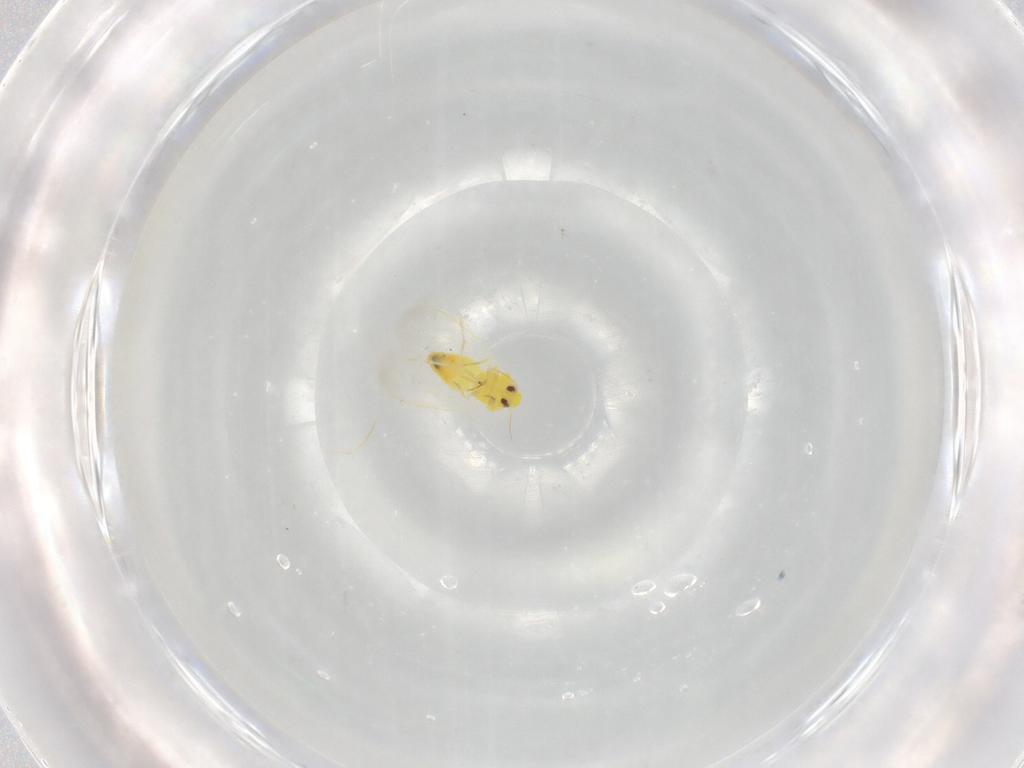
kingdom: Animalia
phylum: Arthropoda
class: Insecta
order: Hemiptera
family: Aleyrodidae
